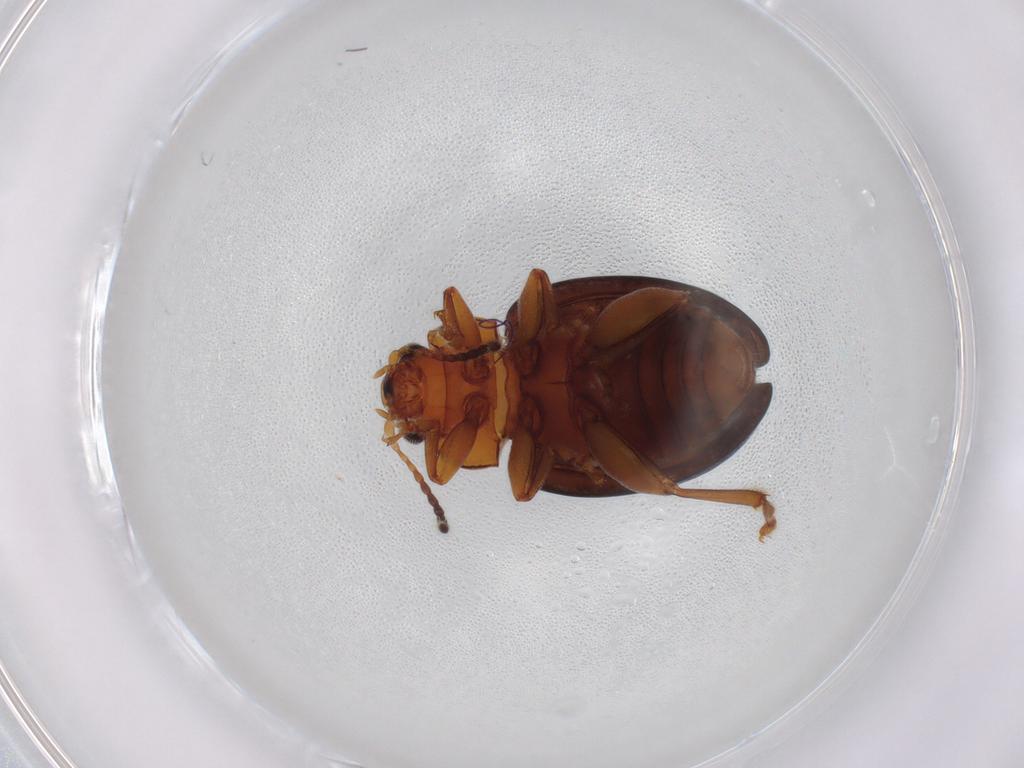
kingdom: Animalia
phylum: Arthropoda
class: Insecta
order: Coleoptera
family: Chrysomelidae
